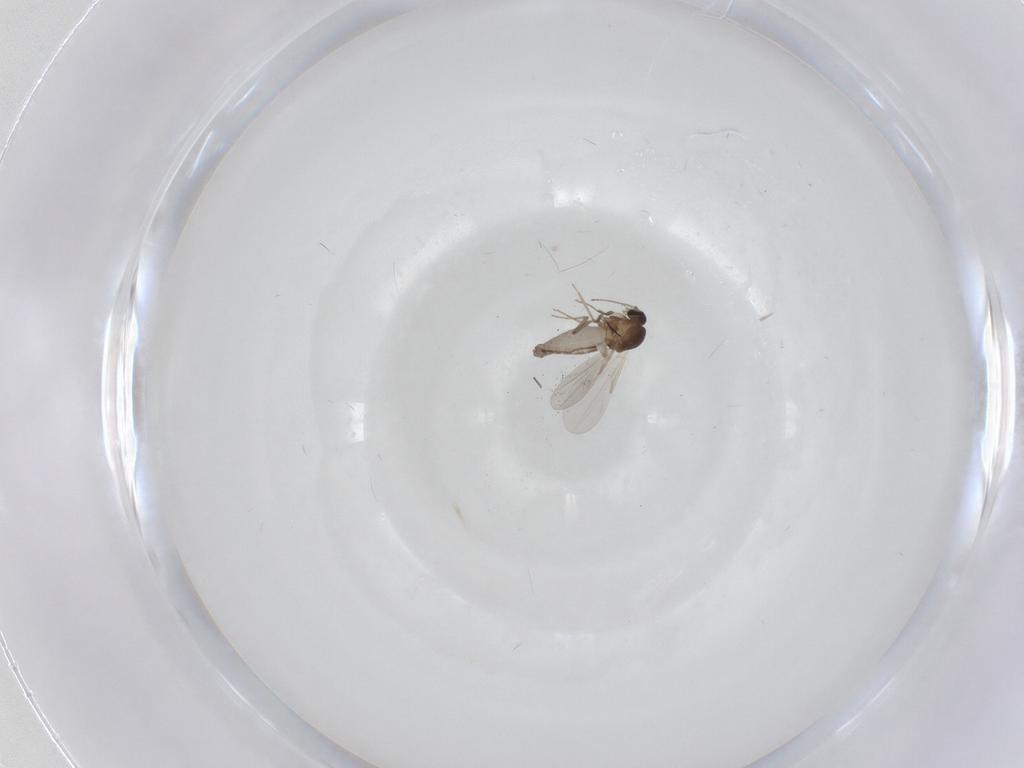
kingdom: Animalia
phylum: Arthropoda
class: Insecta
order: Diptera
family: Ceratopogonidae
